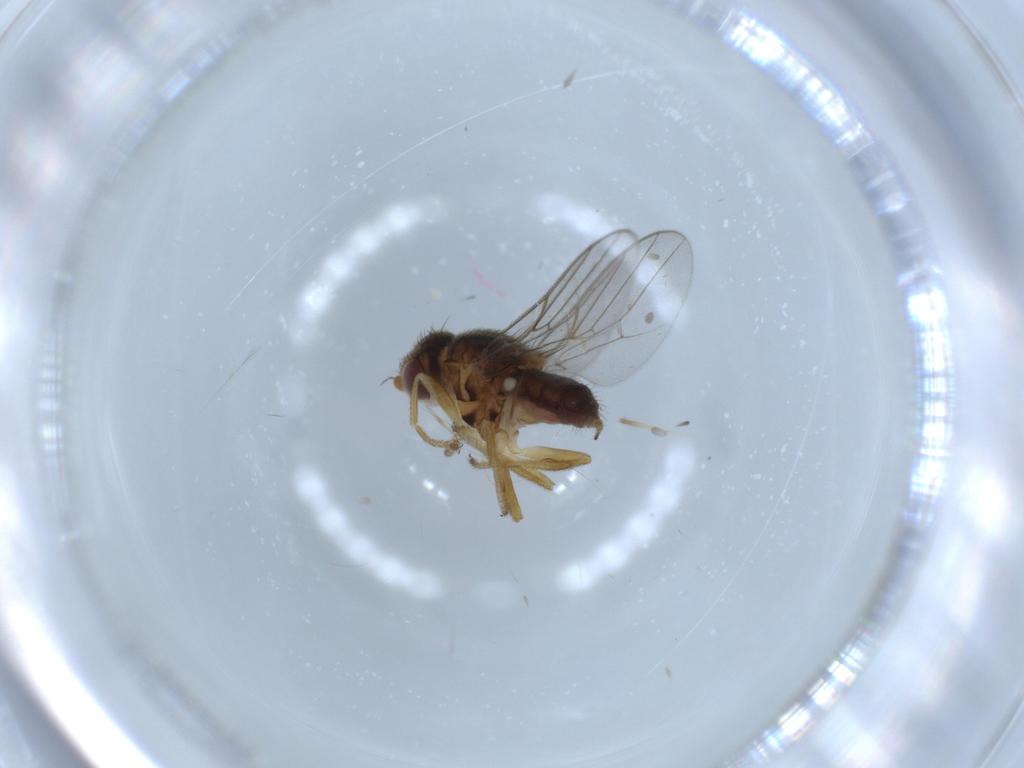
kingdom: Animalia
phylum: Arthropoda
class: Insecta
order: Diptera
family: Chloropidae
